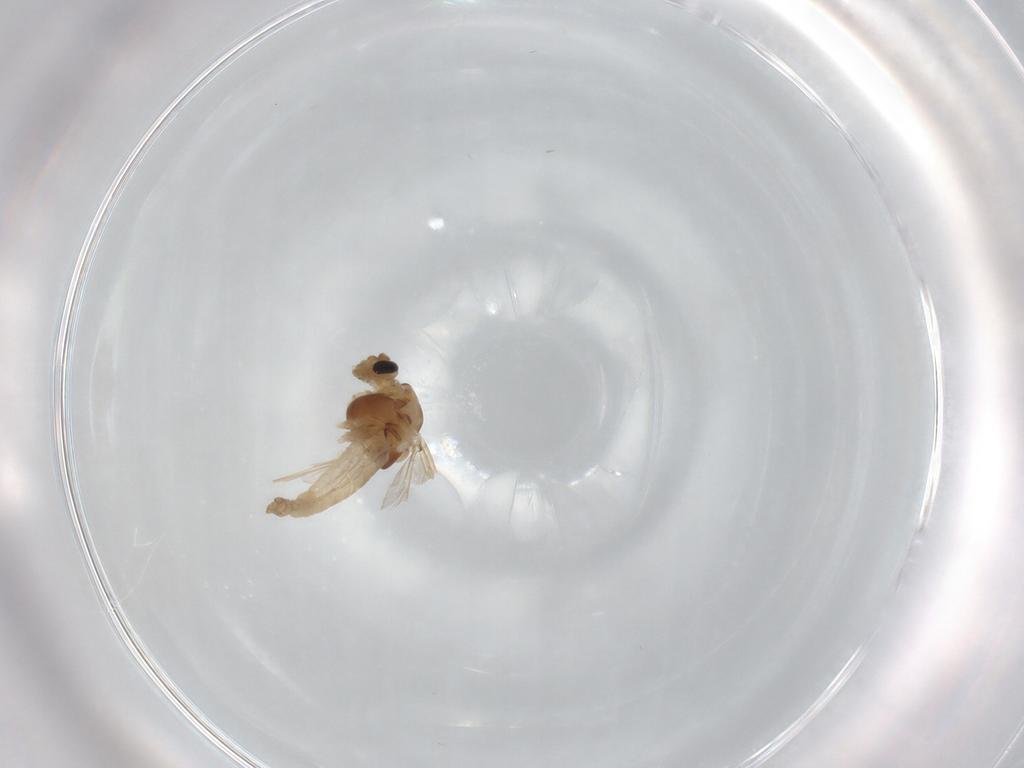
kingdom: Animalia
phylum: Arthropoda
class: Insecta
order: Diptera
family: Chironomidae
